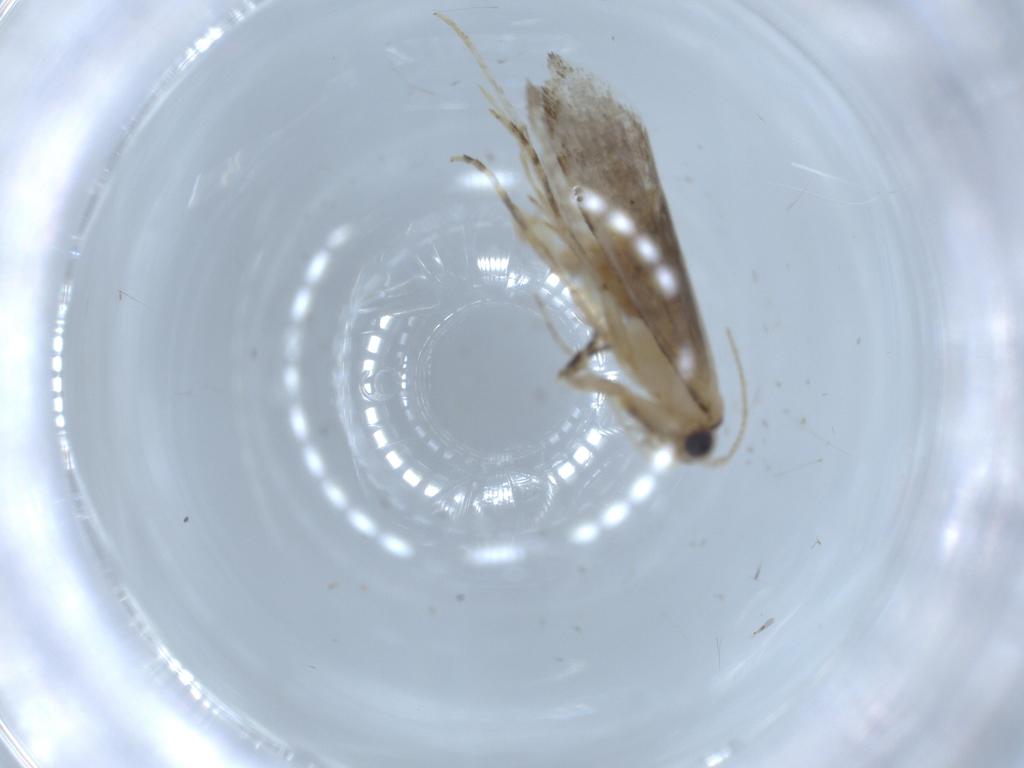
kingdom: Animalia
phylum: Arthropoda
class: Insecta
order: Lepidoptera
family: Tineidae
